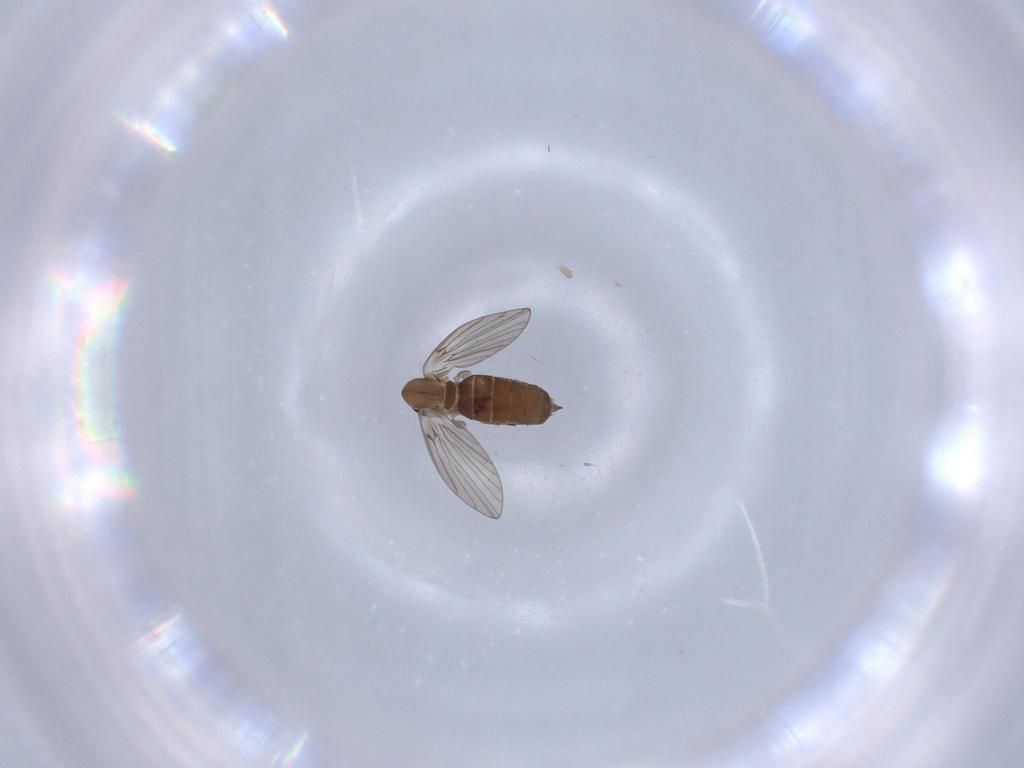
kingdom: Animalia
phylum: Arthropoda
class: Insecta
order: Diptera
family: Psychodidae
